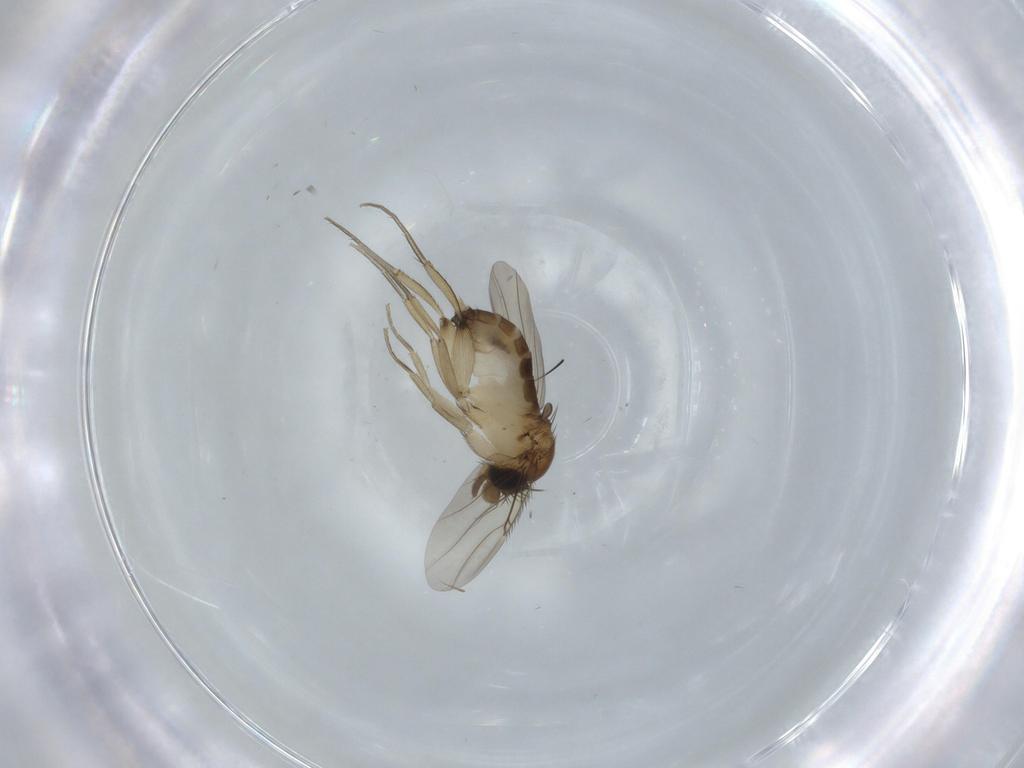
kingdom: Animalia
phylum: Arthropoda
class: Insecta
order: Diptera
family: Phoridae
